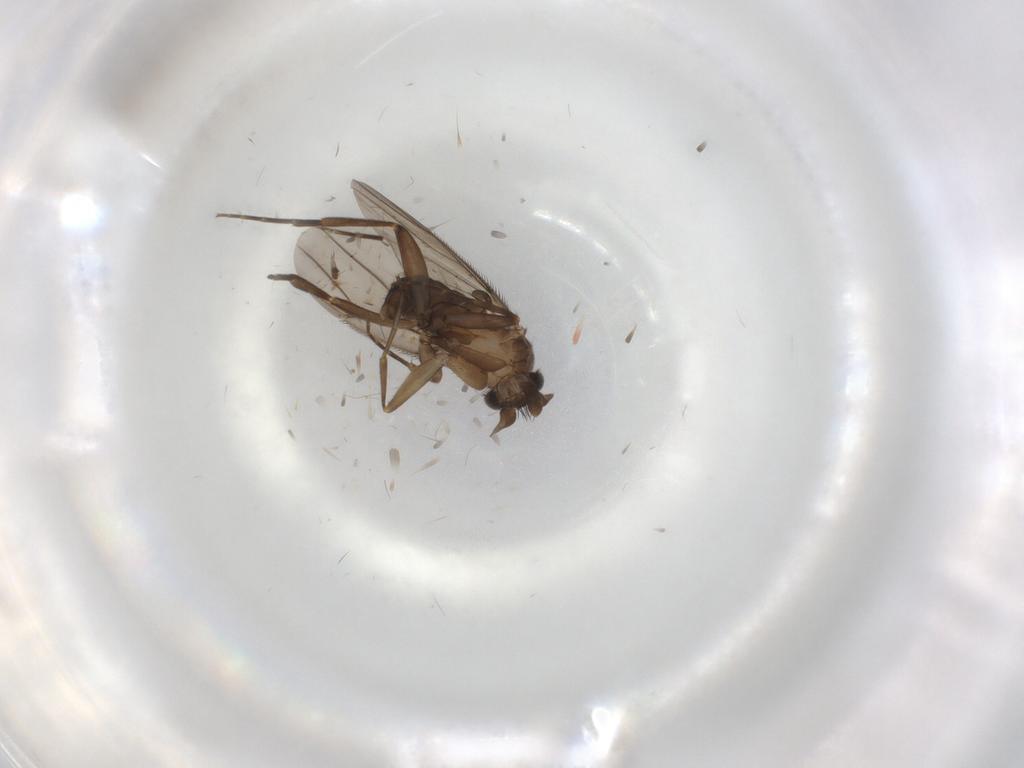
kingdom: Animalia
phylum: Arthropoda
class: Insecta
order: Diptera
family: Phoridae
